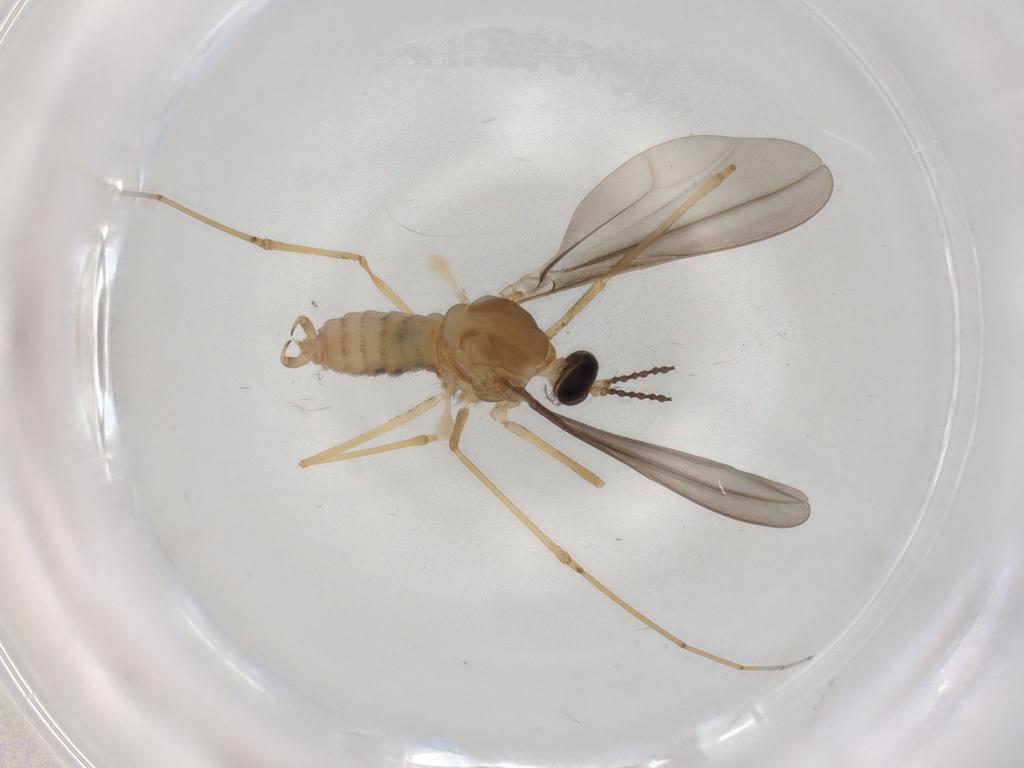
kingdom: Animalia
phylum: Arthropoda
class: Insecta
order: Diptera
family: Cecidomyiidae
